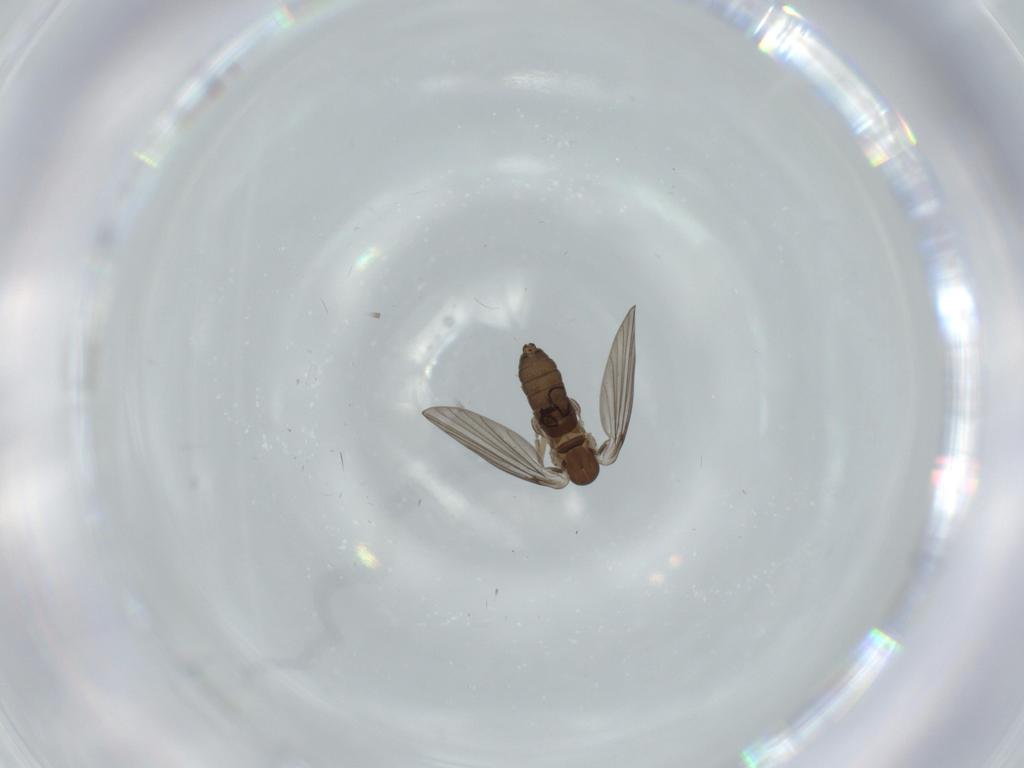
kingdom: Animalia
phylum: Arthropoda
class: Insecta
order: Diptera
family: Psychodidae
